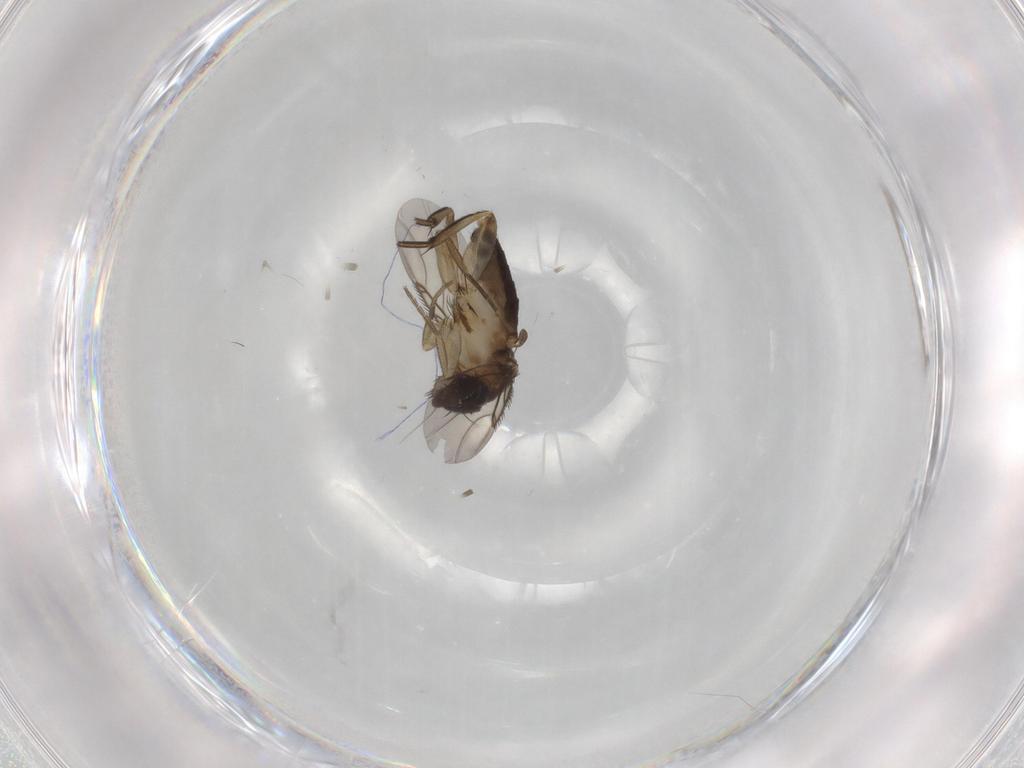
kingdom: Animalia
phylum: Arthropoda
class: Insecta
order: Diptera
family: Phoridae
